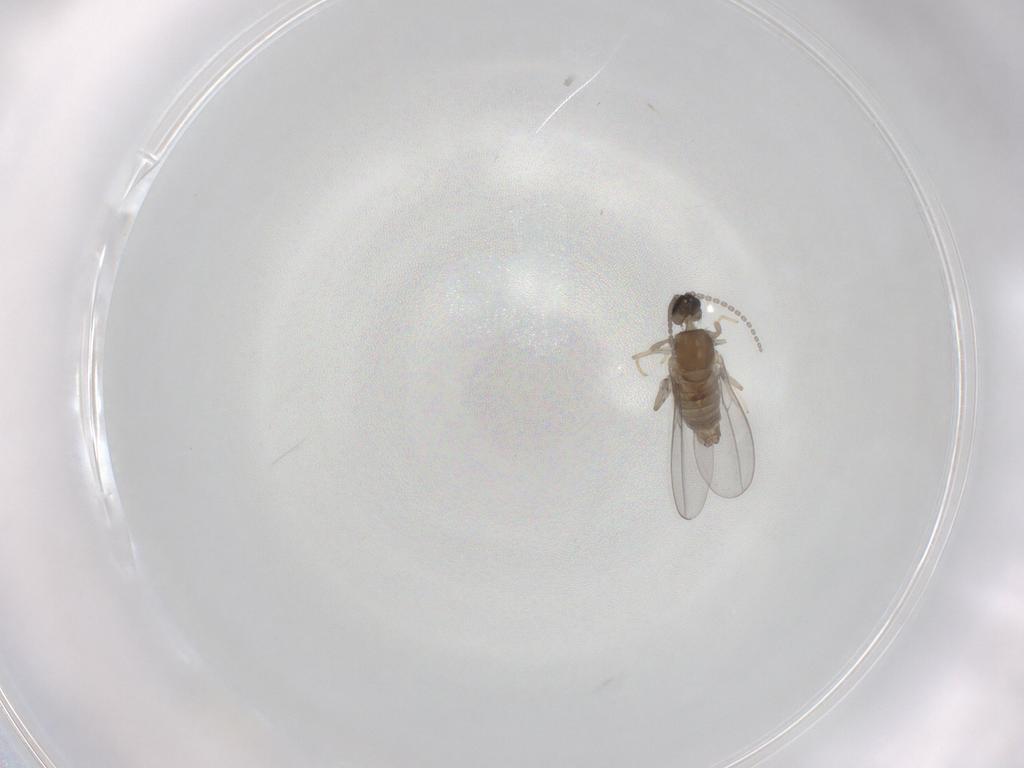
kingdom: Animalia
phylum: Arthropoda
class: Insecta
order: Diptera
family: Cecidomyiidae
